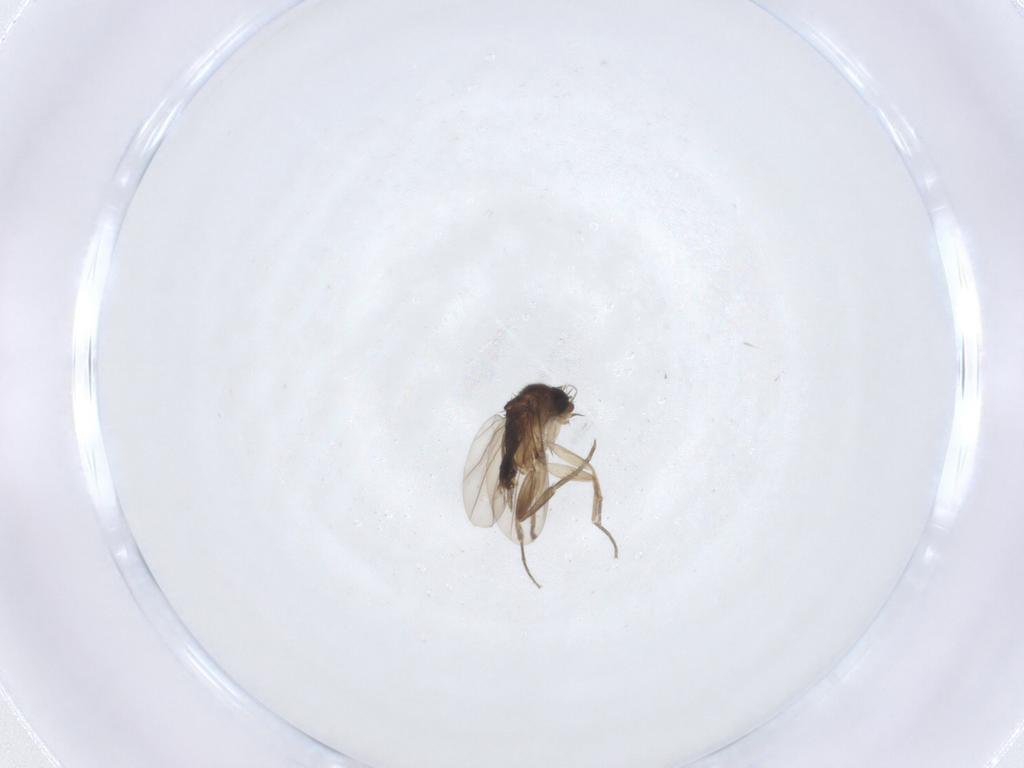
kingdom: Animalia
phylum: Arthropoda
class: Insecta
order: Diptera
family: Phoridae
